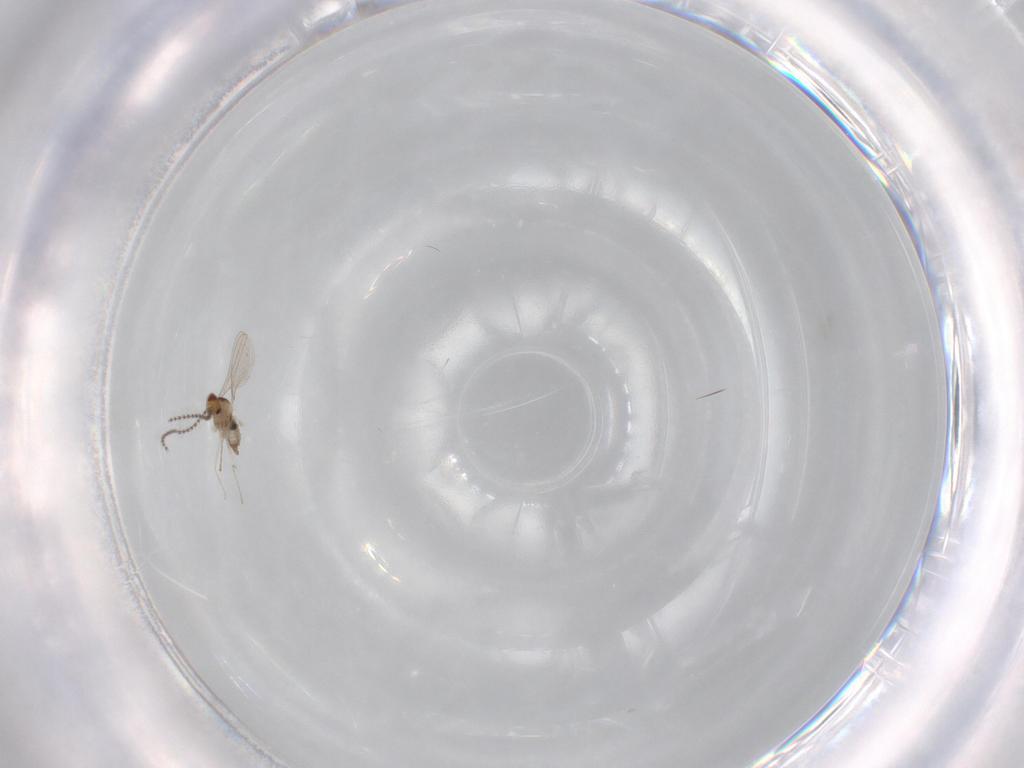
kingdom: Animalia
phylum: Arthropoda
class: Insecta
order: Diptera
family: Cecidomyiidae
